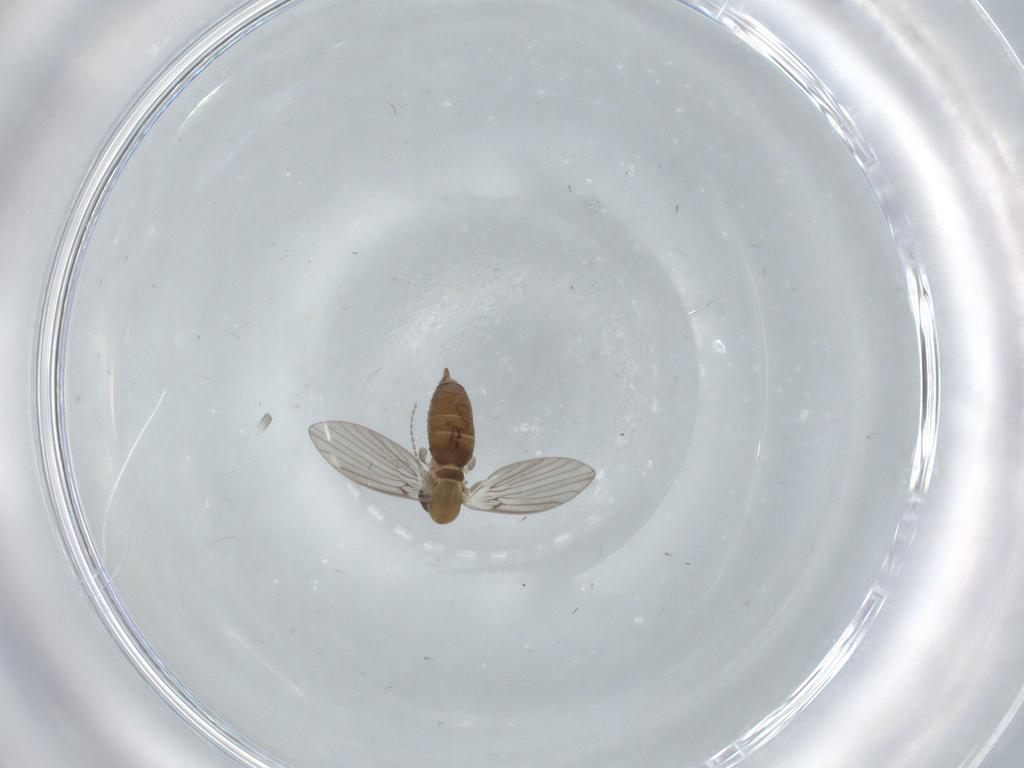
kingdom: Animalia
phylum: Arthropoda
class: Insecta
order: Diptera
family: Phoridae
